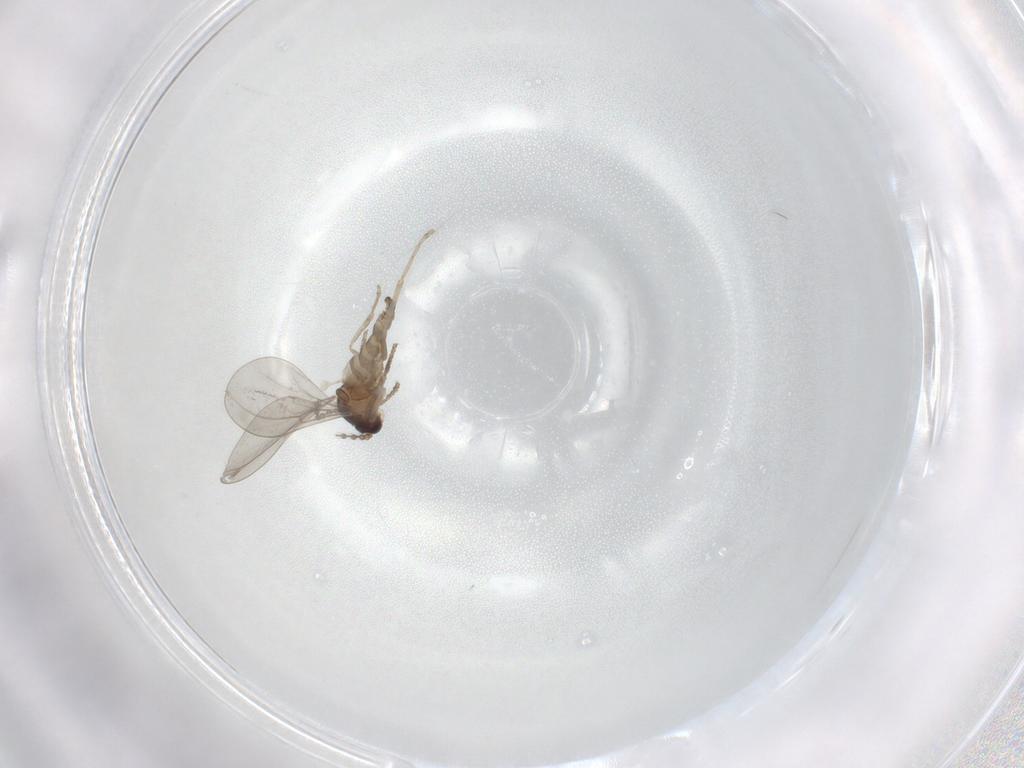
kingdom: Animalia
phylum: Arthropoda
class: Insecta
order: Diptera
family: Cecidomyiidae
